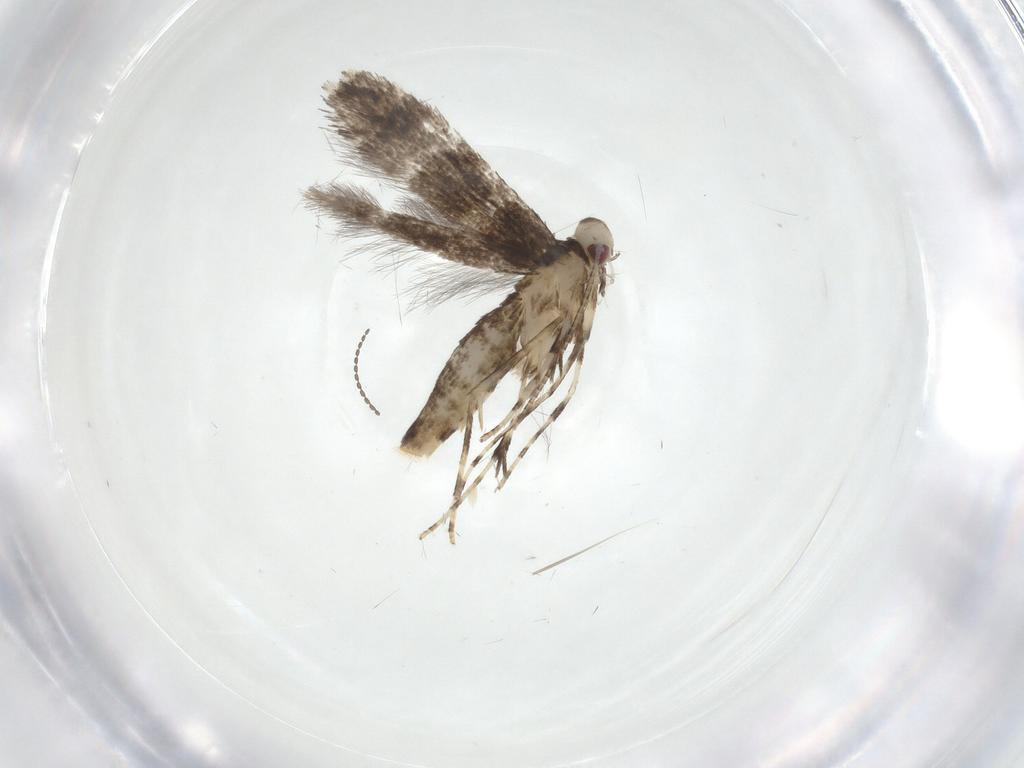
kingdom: Animalia
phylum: Arthropoda
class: Insecta
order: Lepidoptera
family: Gracillariidae
